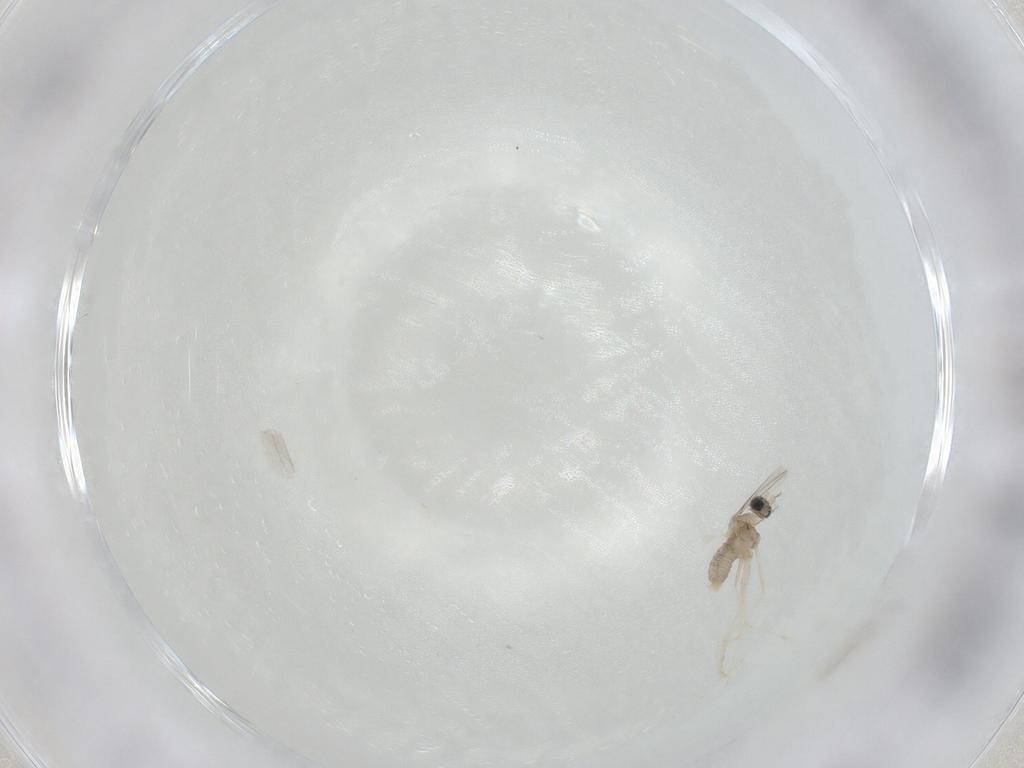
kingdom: Animalia
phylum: Arthropoda
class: Insecta
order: Diptera
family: Cecidomyiidae
